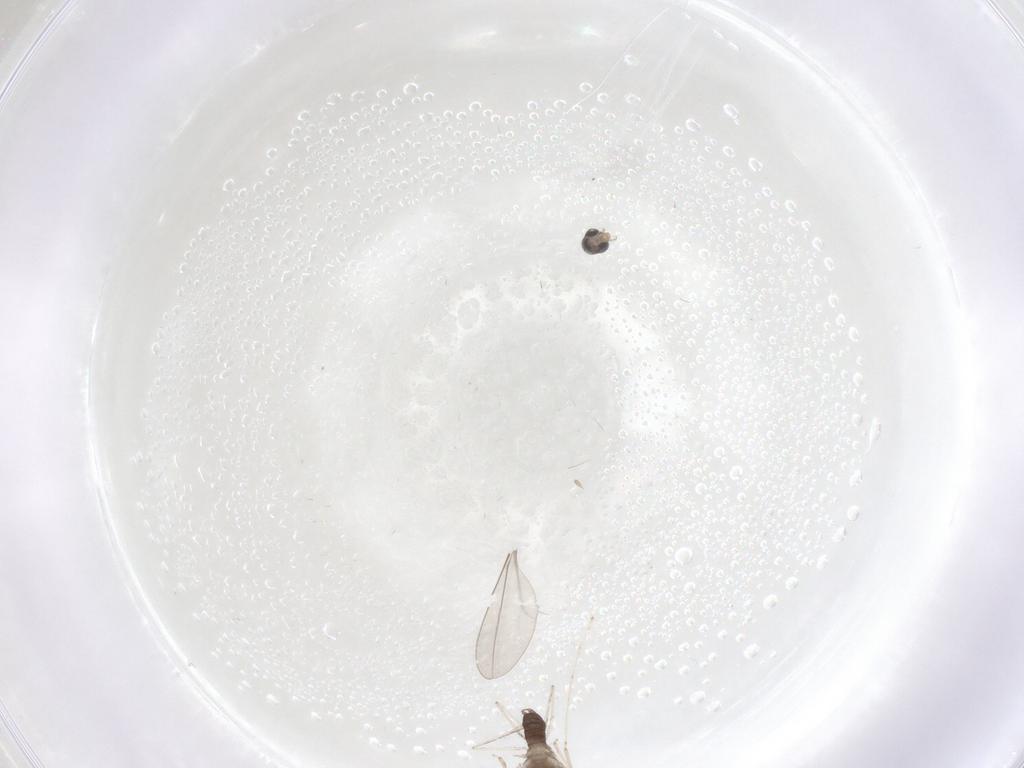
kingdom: Animalia
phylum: Arthropoda
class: Insecta
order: Diptera
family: Cecidomyiidae
